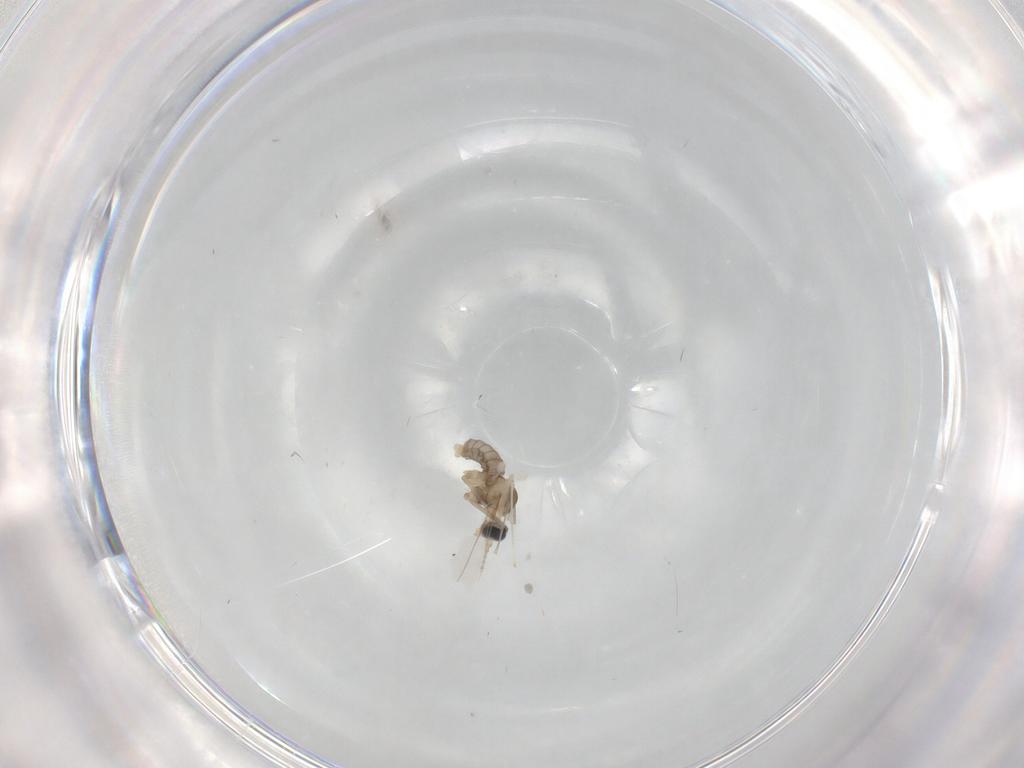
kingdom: Animalia
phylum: Arthropoda
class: Insecta
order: Diptera
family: Cecidomyiidae
